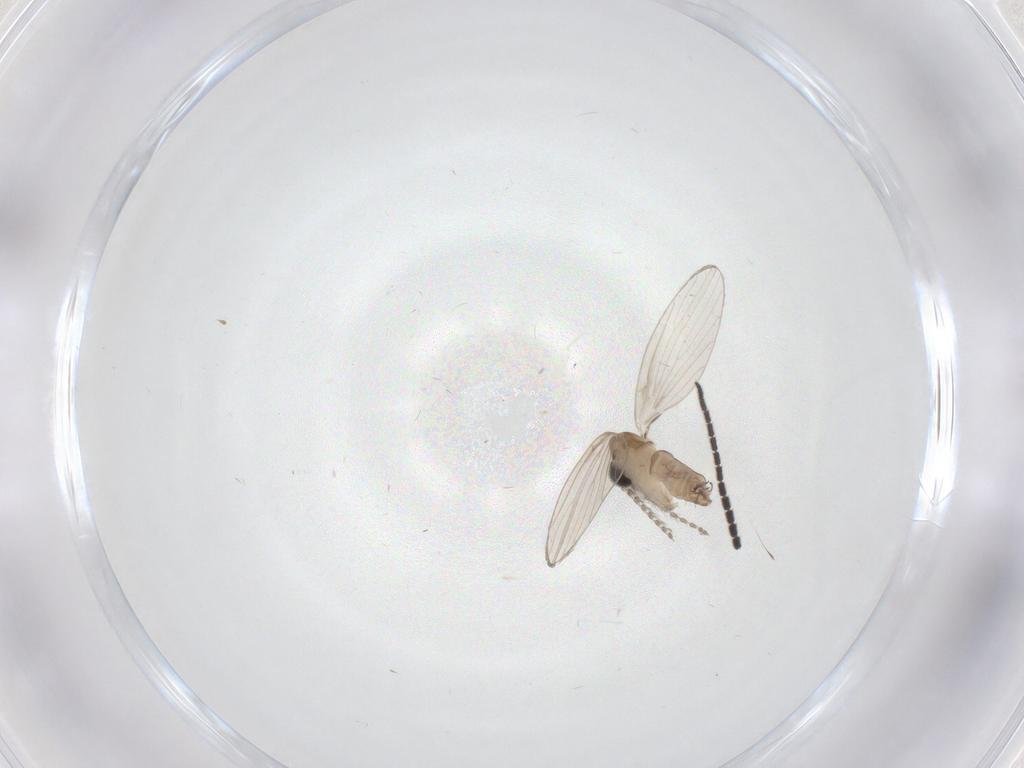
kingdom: Animalia
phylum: Arthropoda
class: Insecta
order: Diptera
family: Sciaridae
